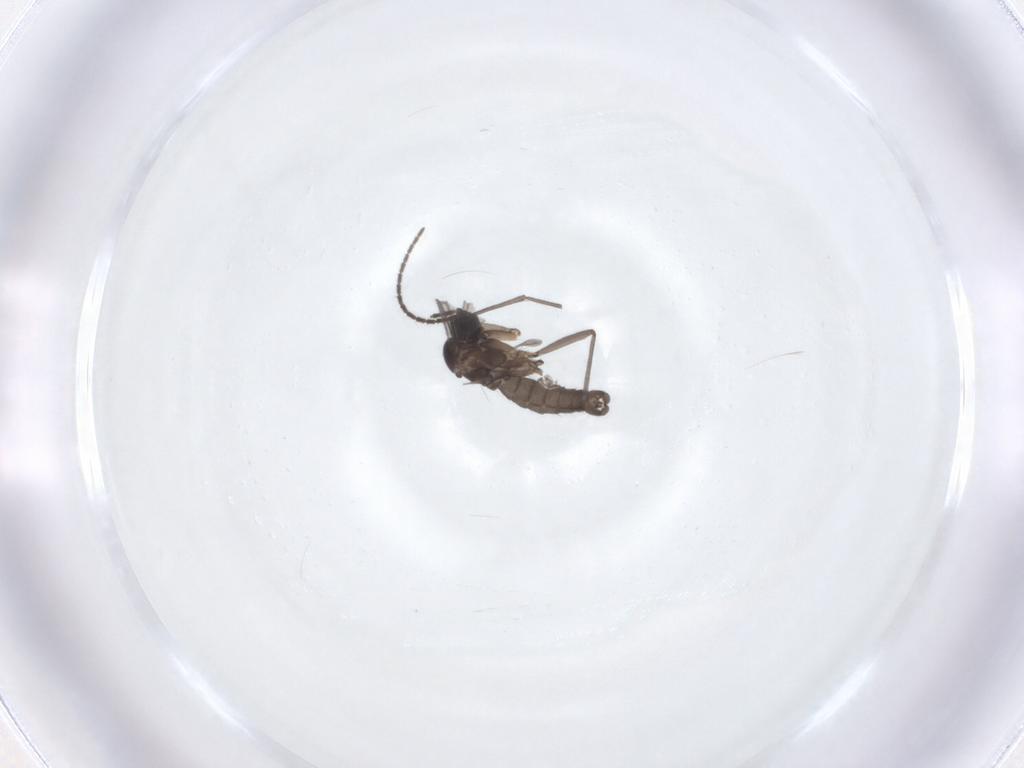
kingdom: Animalia
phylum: Arthropoda
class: Insecta
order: Diptera
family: Sciaridae
